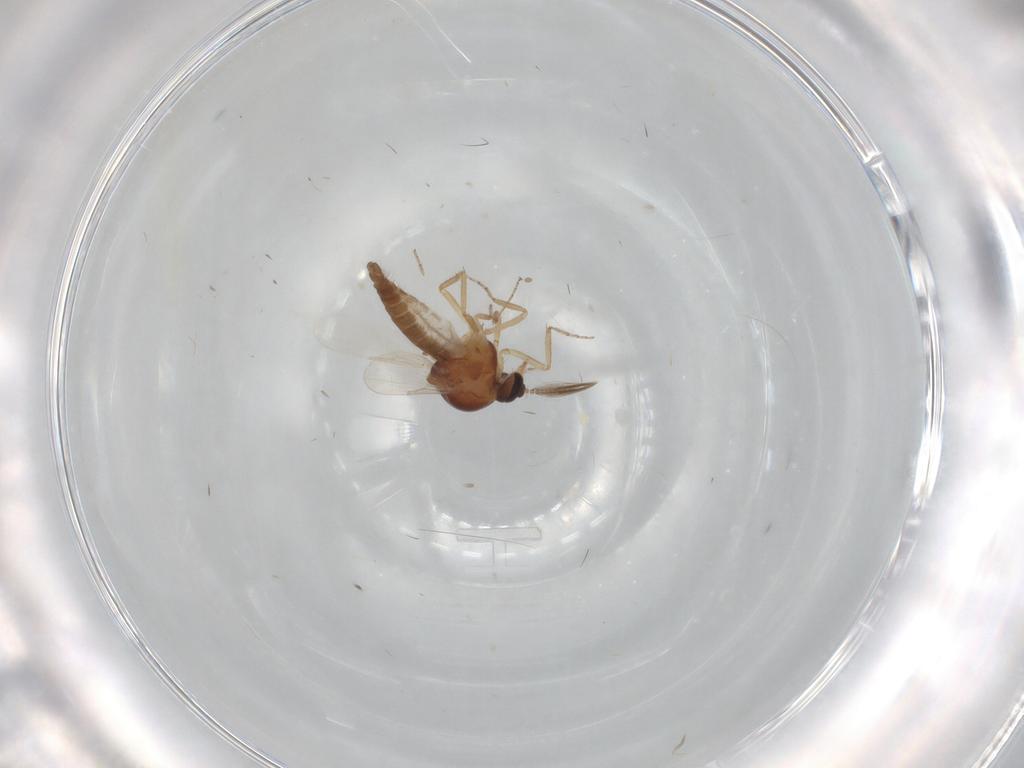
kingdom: Animalia
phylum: Arthropoda
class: Insecta
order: Diptera
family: Ceratopogonidae
